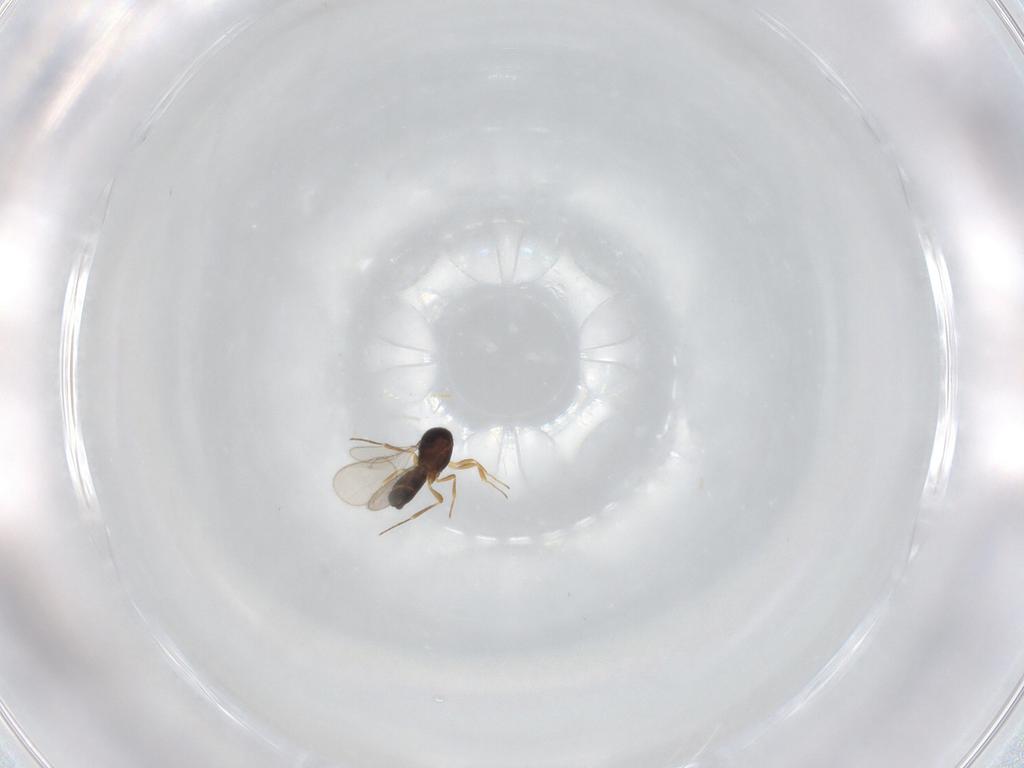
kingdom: Animalia
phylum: Arthropoda
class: Insecta
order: Hymenoptera
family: Scelionidae
